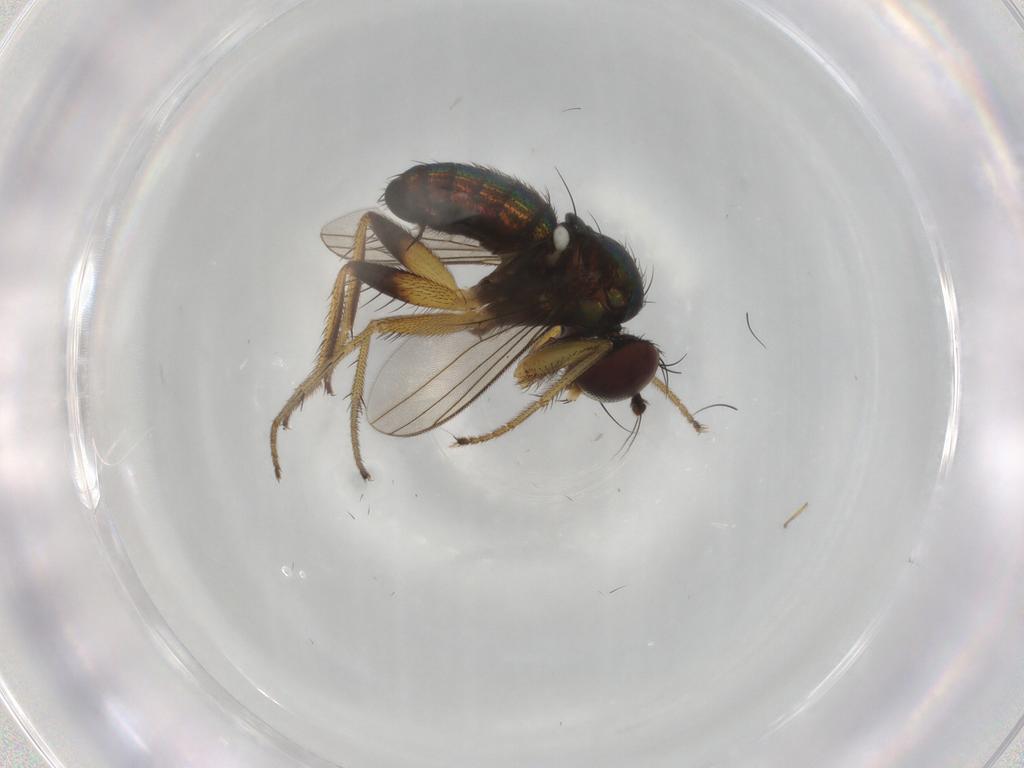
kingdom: Animalia
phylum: Arthropoda
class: Insecta
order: Diptera
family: Dolichopodidae
